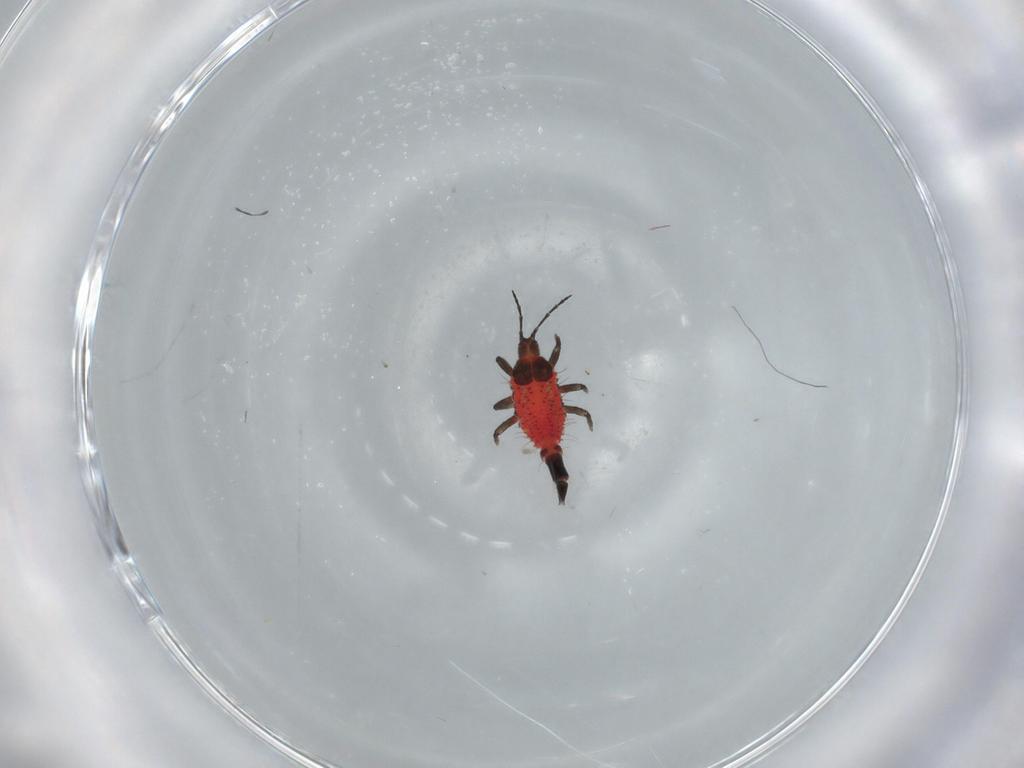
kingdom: Animalia
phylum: Arthropoda
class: Insecta
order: Thysanoptera
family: Phlaeothripidae
